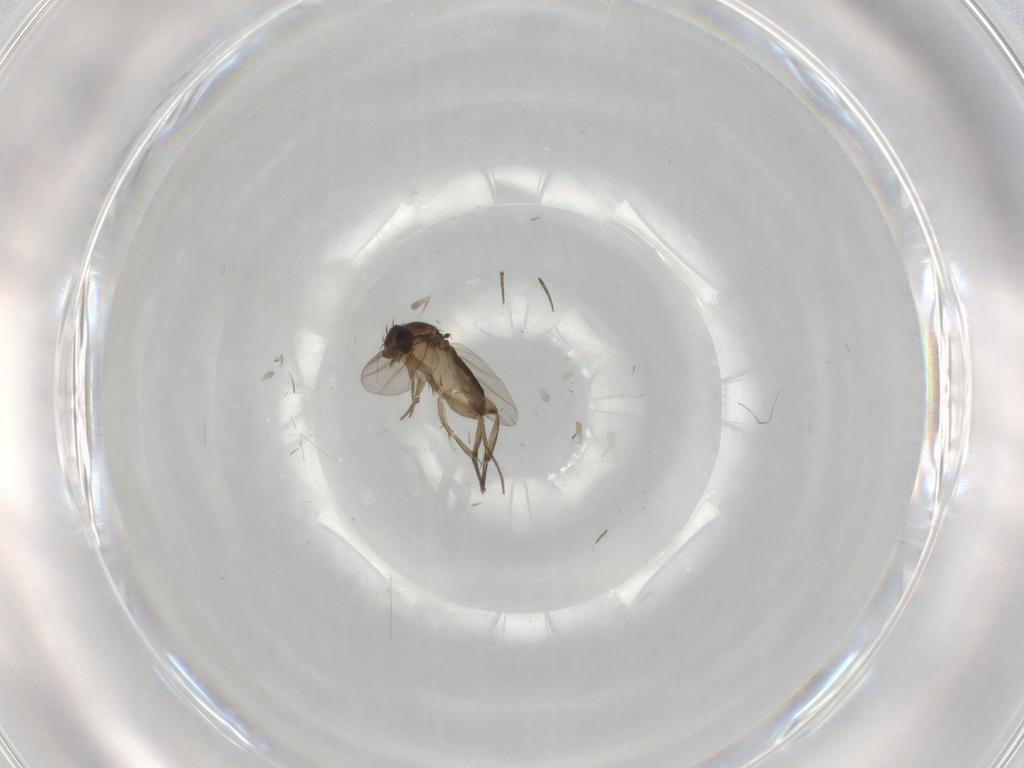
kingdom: Animalia
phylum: Arthropoda
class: Insecta
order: Diptera
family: Phoridae
